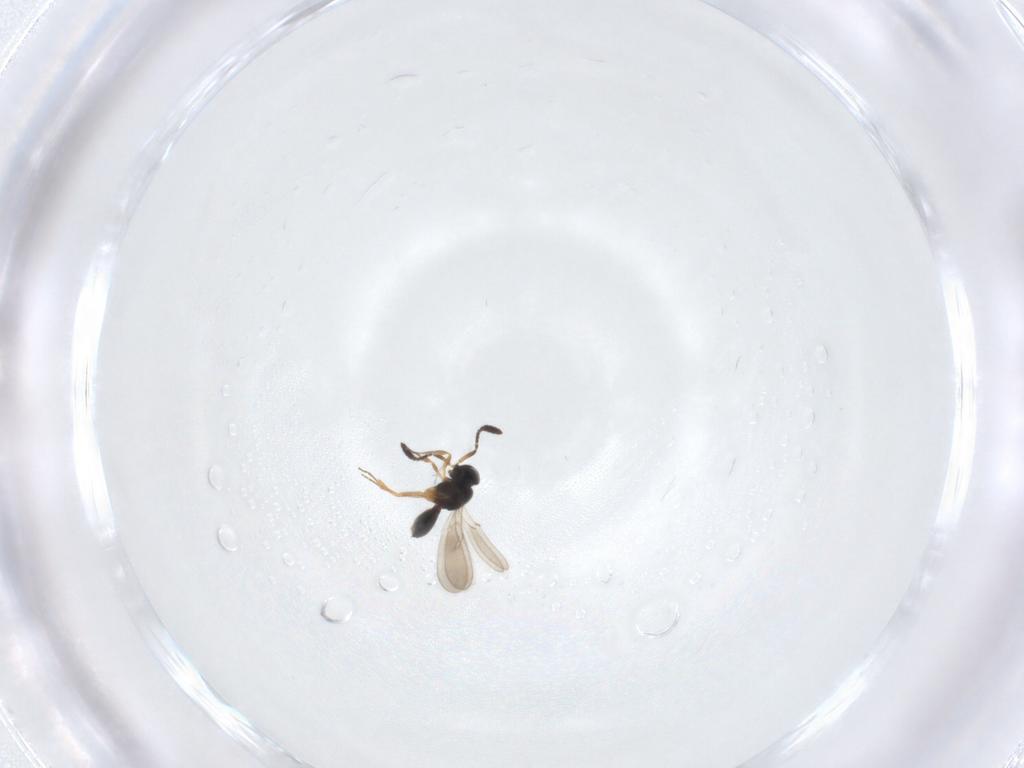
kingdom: Animalia
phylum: Arthropoda
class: Insecta
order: Hymenoptera
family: Scelionidae
